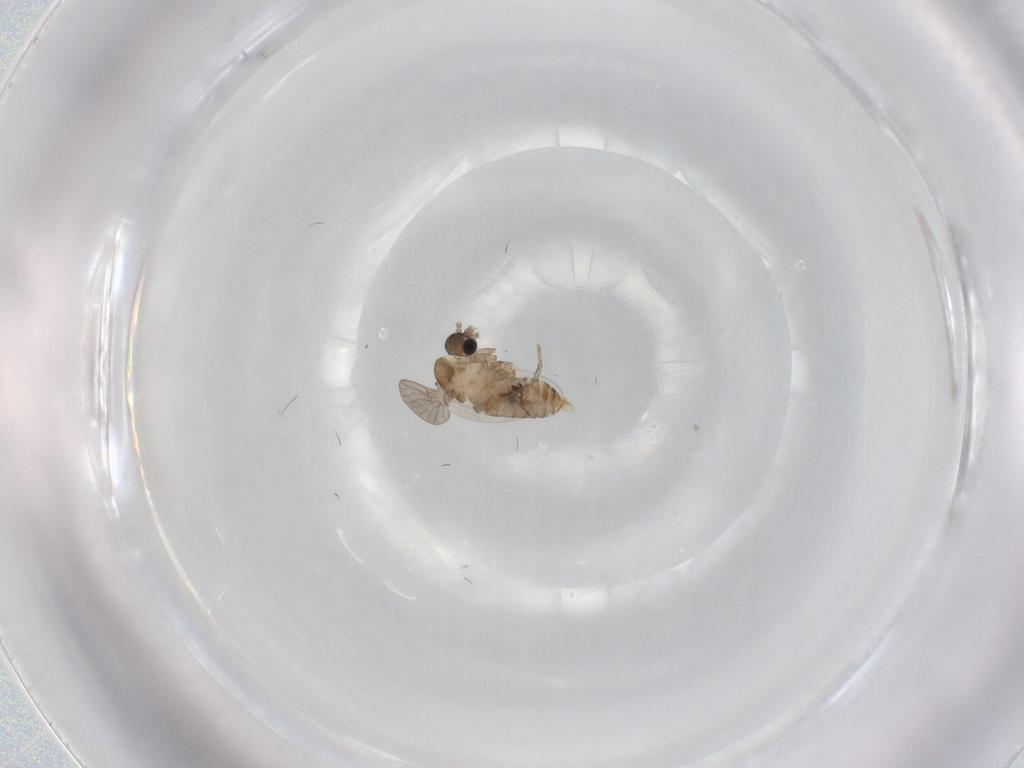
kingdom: Animalia
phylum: Arthropoda
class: Insecta
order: Diptera
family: Psychodidae
